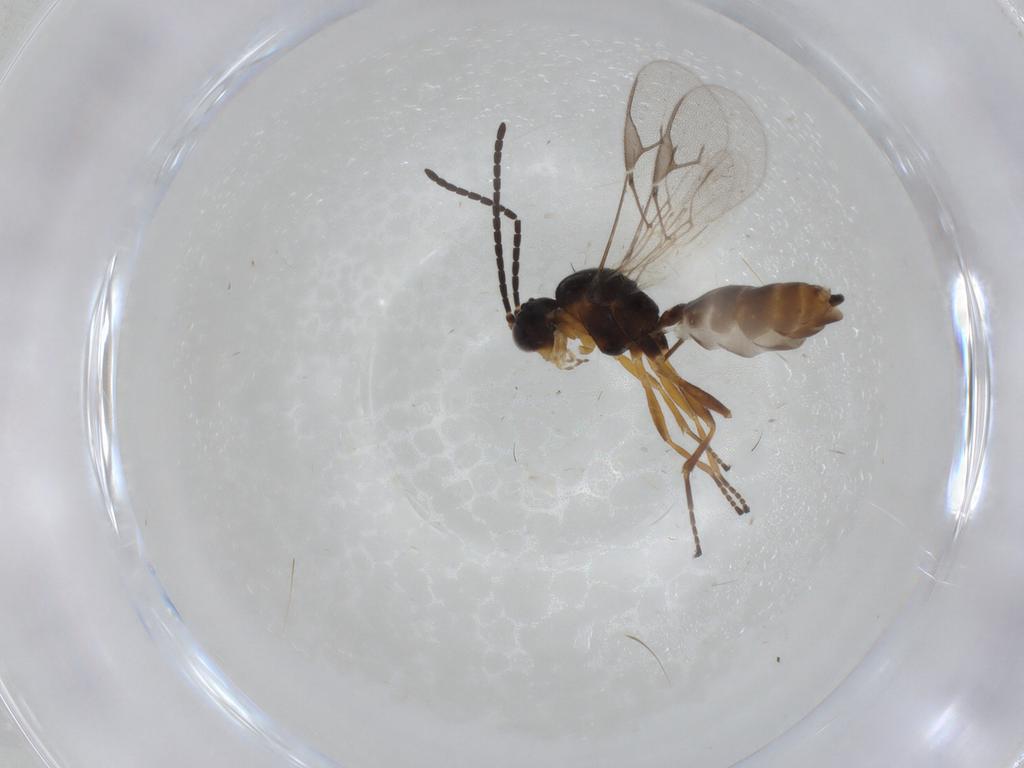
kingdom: Animalia
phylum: Arthropoda
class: Insecta
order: Hymenoptera
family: Braconidae
